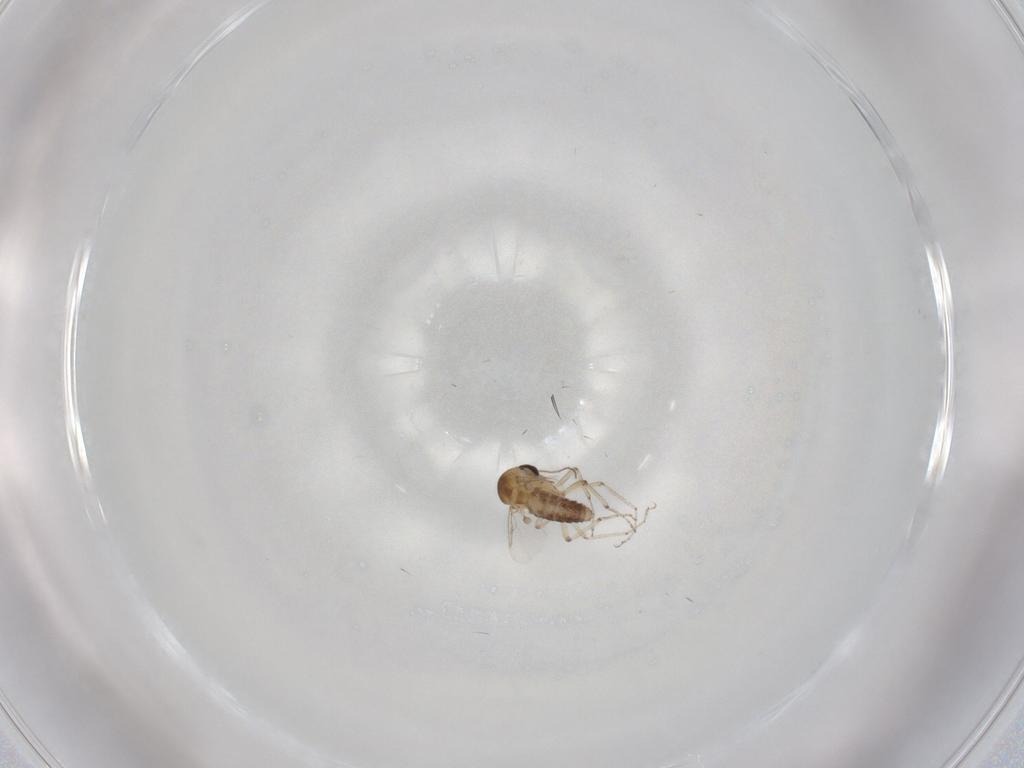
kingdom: Animalia
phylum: Arthropoda
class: Insecta
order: Diptera
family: Ceratopogonidae
